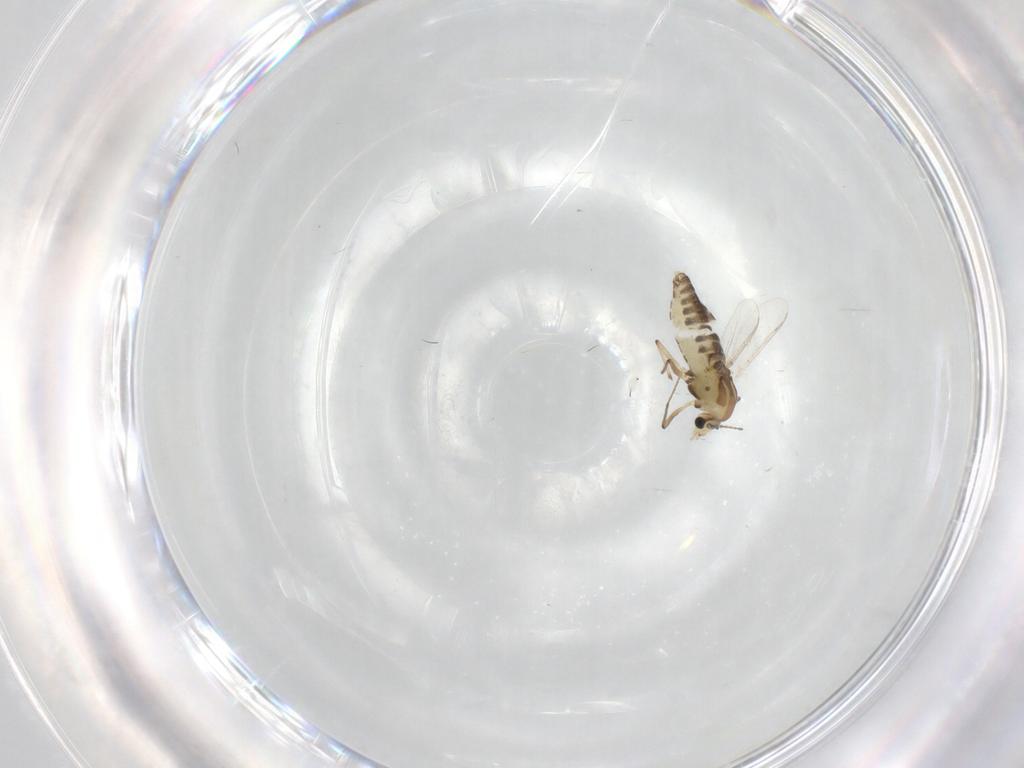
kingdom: Animalia
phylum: Arthropoda
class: Insecta
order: Diptera
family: Chironomidae
